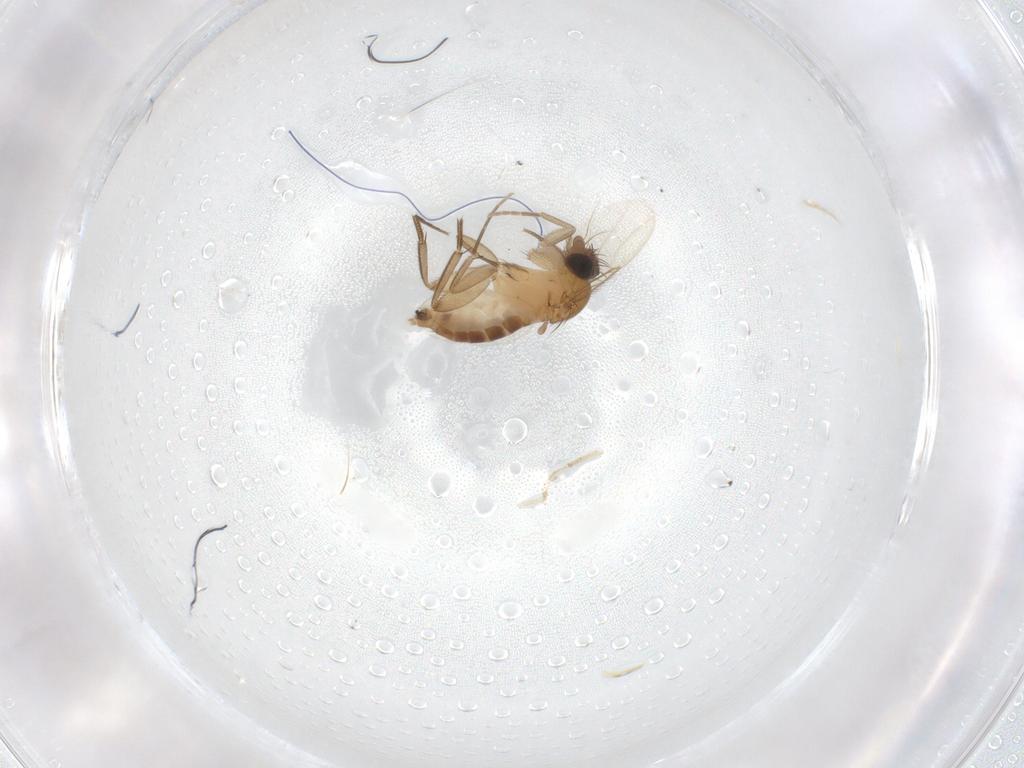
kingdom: Animalia
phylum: Arthropoda
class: Insecta
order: Diptera
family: Phoridae
